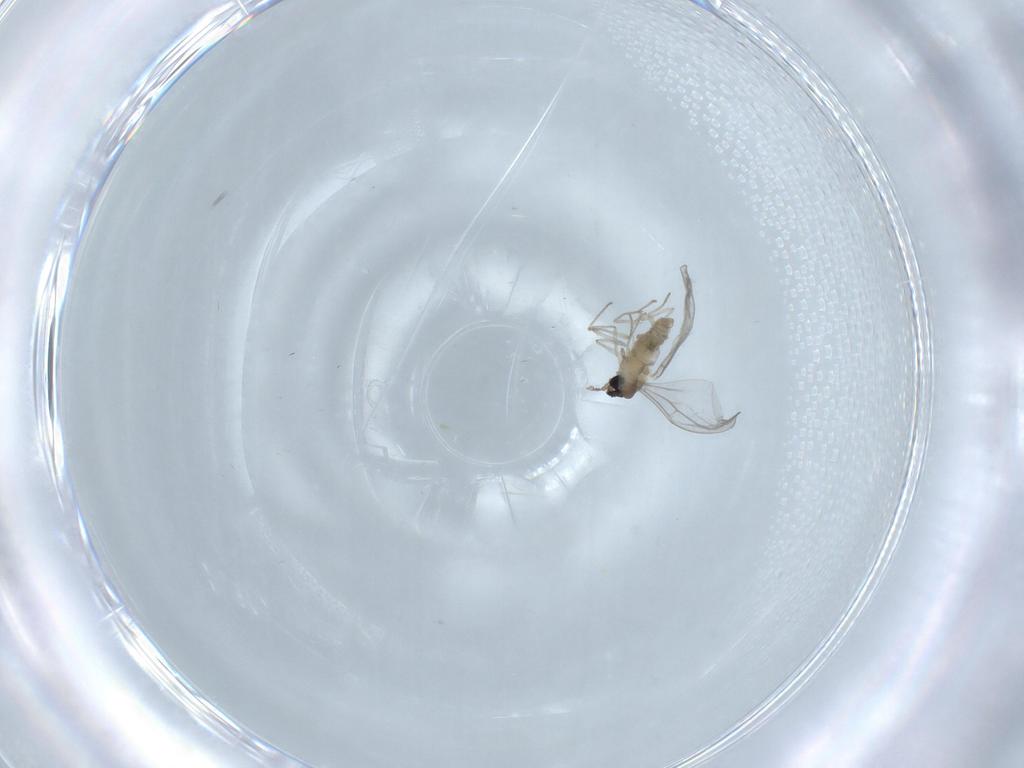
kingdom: Animalia
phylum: Arthropoda
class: Insecta
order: Diptera
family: Cecidomyiidae
